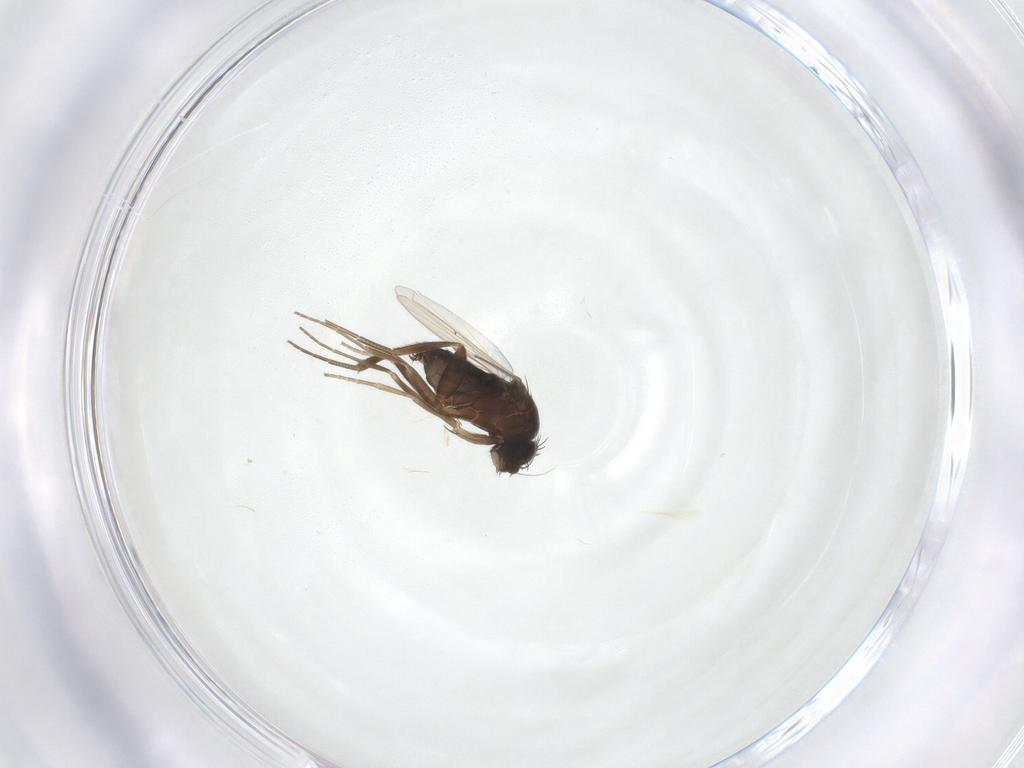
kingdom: Animalia
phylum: Arthropoda
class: Insecta
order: Diptera
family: Phoridae
